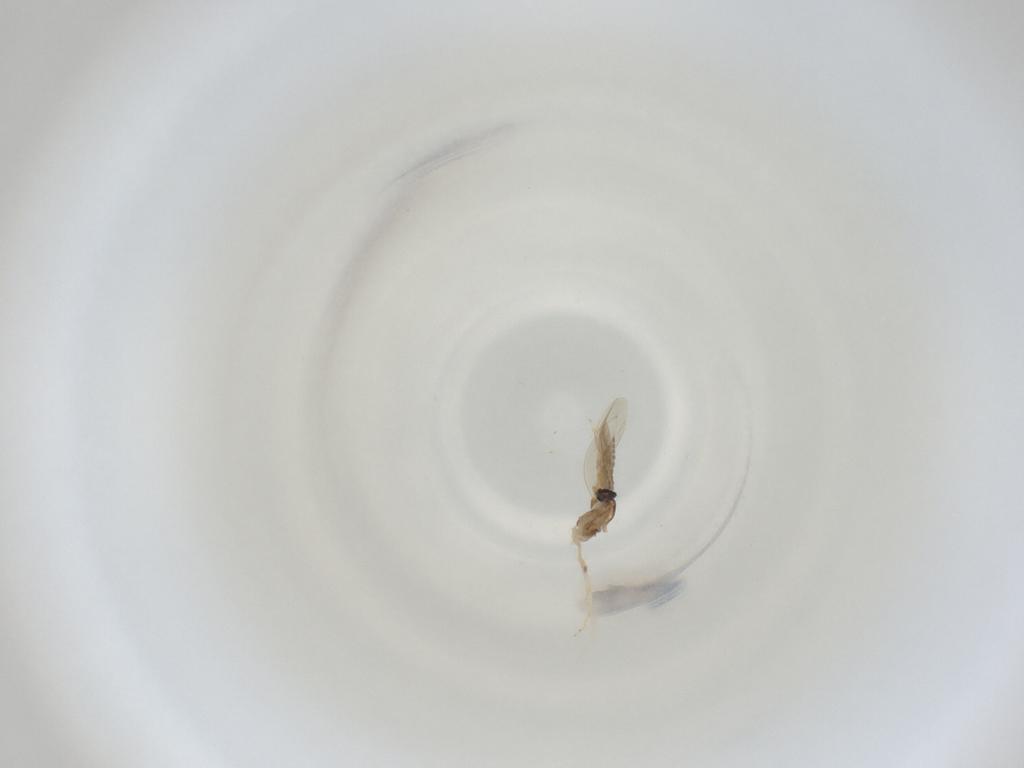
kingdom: Animalia
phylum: Arthropoda
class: Insecta
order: Diptera
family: Cecidomyiidae
